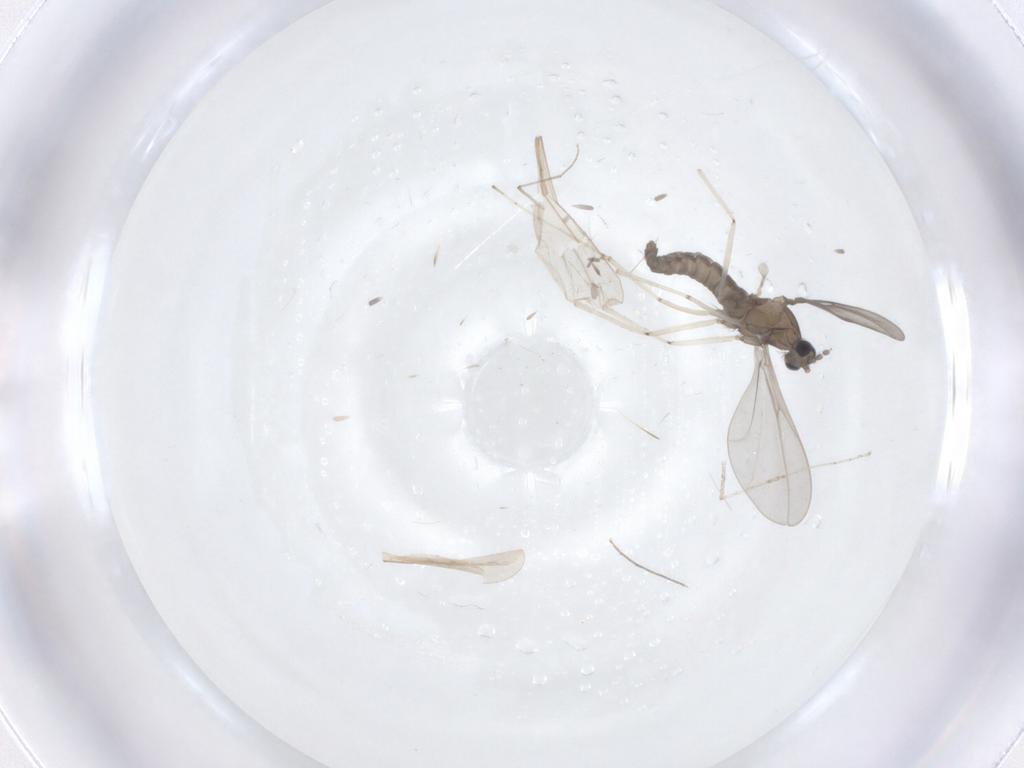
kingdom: Animalia
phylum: Arthropoda
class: Insecta
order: Diptera
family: Cecidomyiidae
